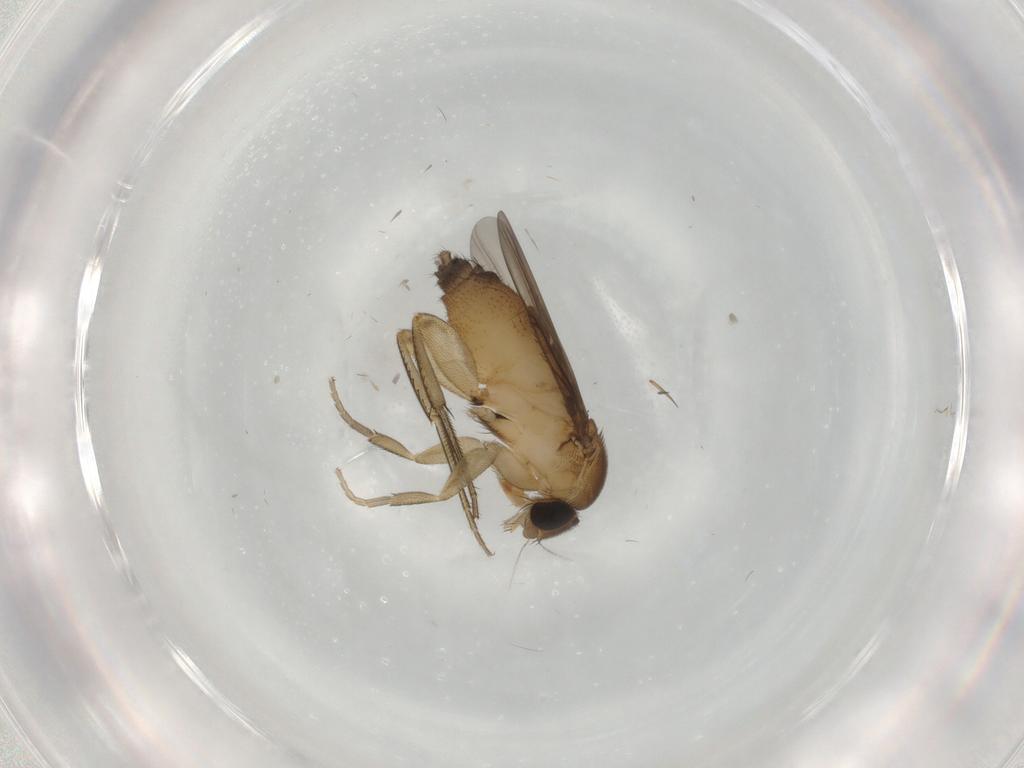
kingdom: Animalia
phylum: Arthropoda
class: Insecta
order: Diptera
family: Phoridae
